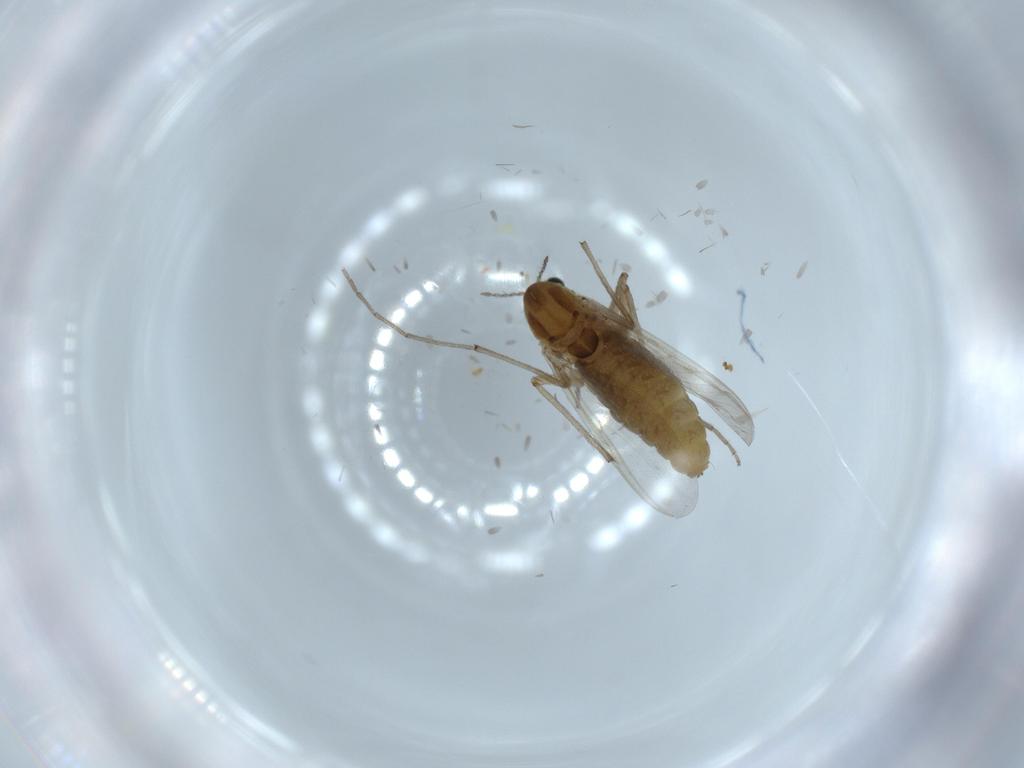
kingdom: Animalia
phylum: Arthropoda
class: Insecta
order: Diptera
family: Chironomidae
